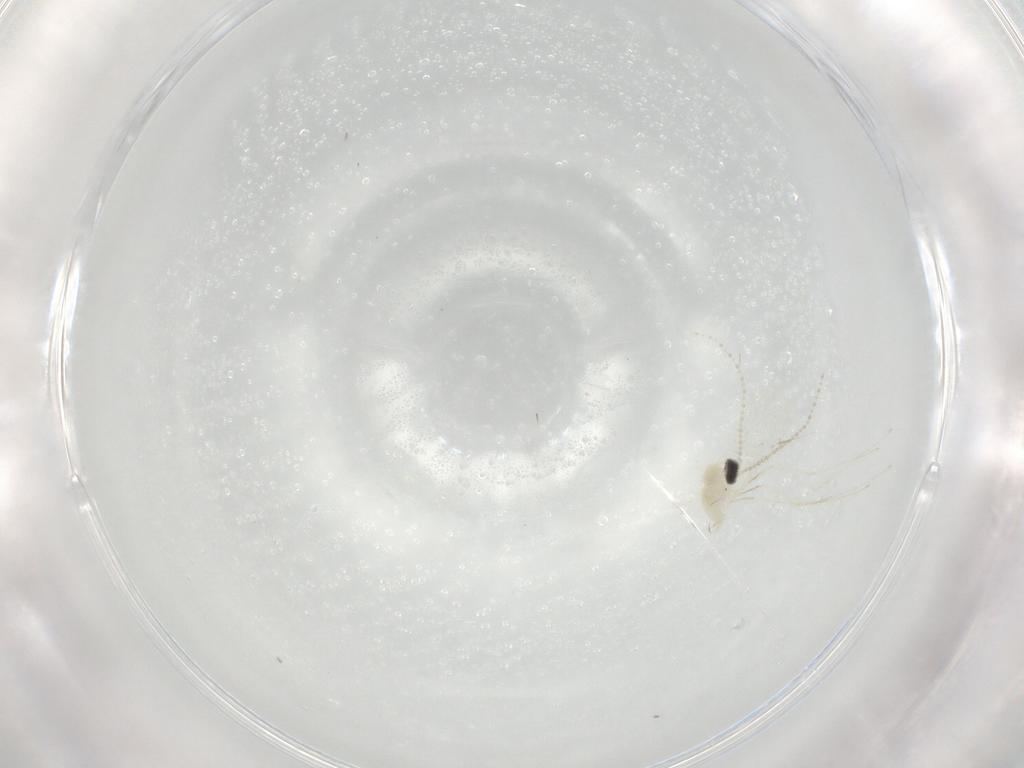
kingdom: Animalia
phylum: Arthropoda
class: Insecta
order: Diptera
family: Cecidomyiidae
